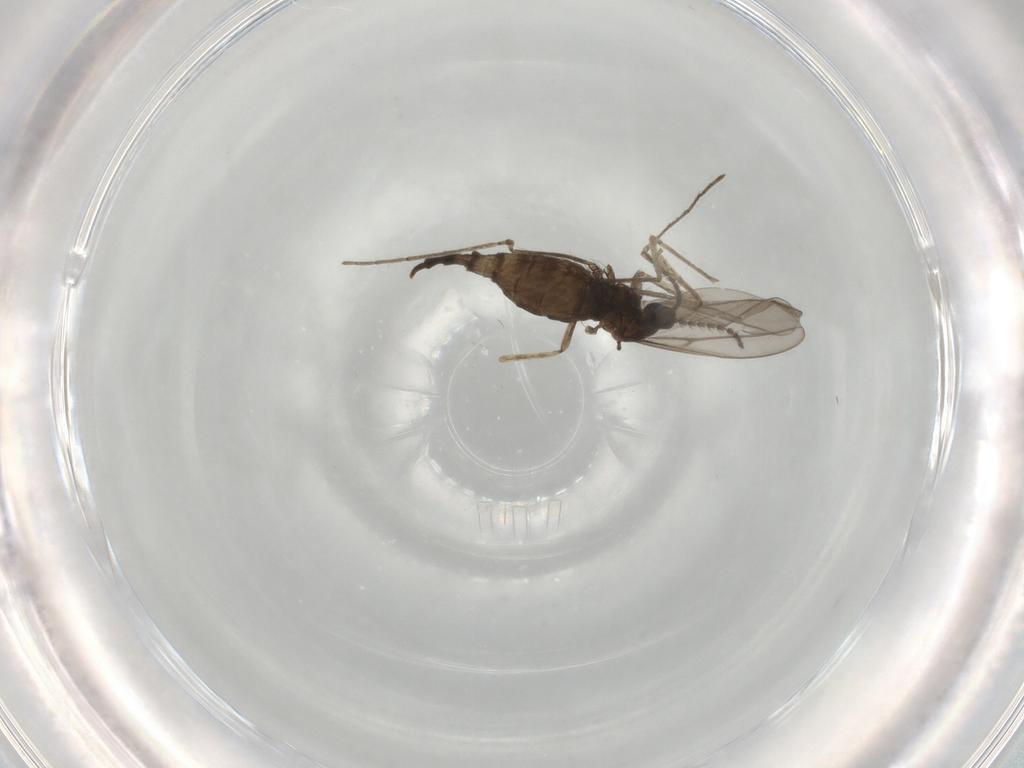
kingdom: Animalia
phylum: Arthropoda
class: Insecta
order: Diptera
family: Cecidomyiidae
